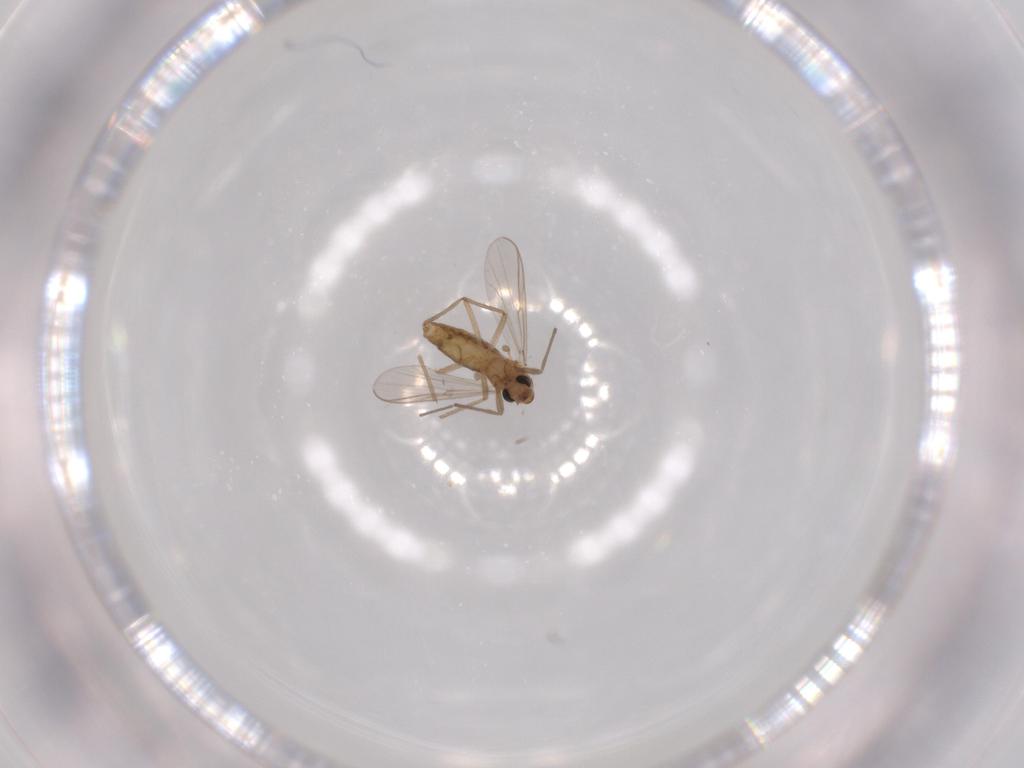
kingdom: Animalia
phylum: Arthropoda
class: Insecta
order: Diptera
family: Chironomidae
